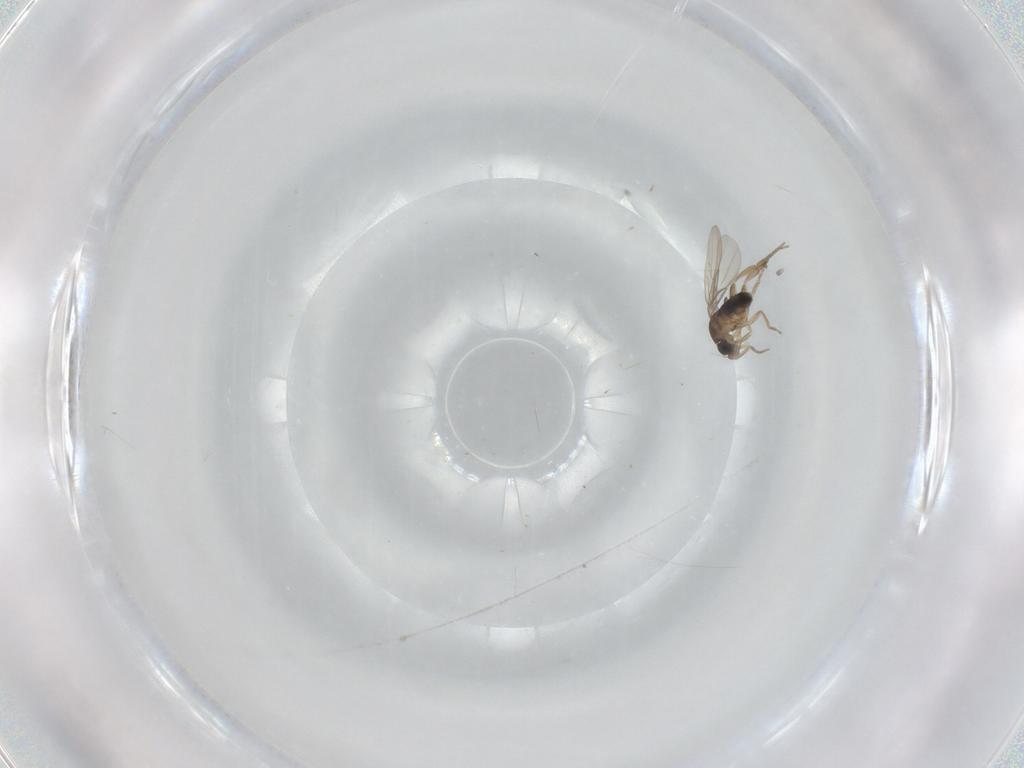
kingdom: Animalia
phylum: Arthropoda
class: Insecta
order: Diptera
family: Phoridae
